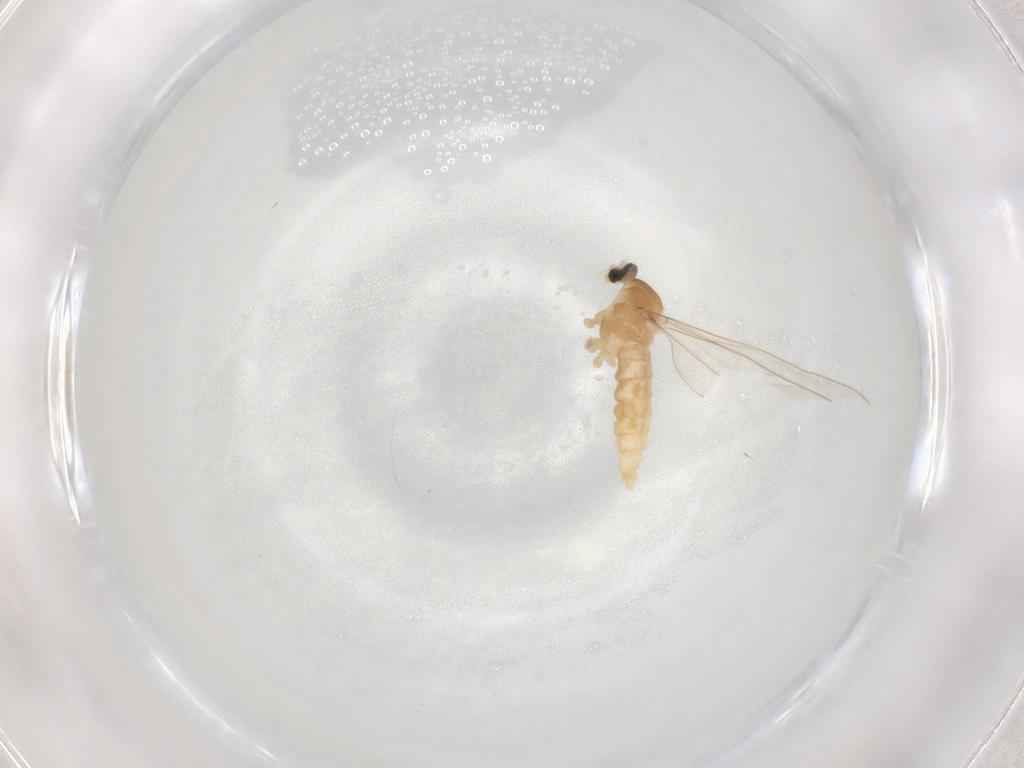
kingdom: Animalia
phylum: Arthropoda
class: Insecta
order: Diptera
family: Cecidomyiidae
